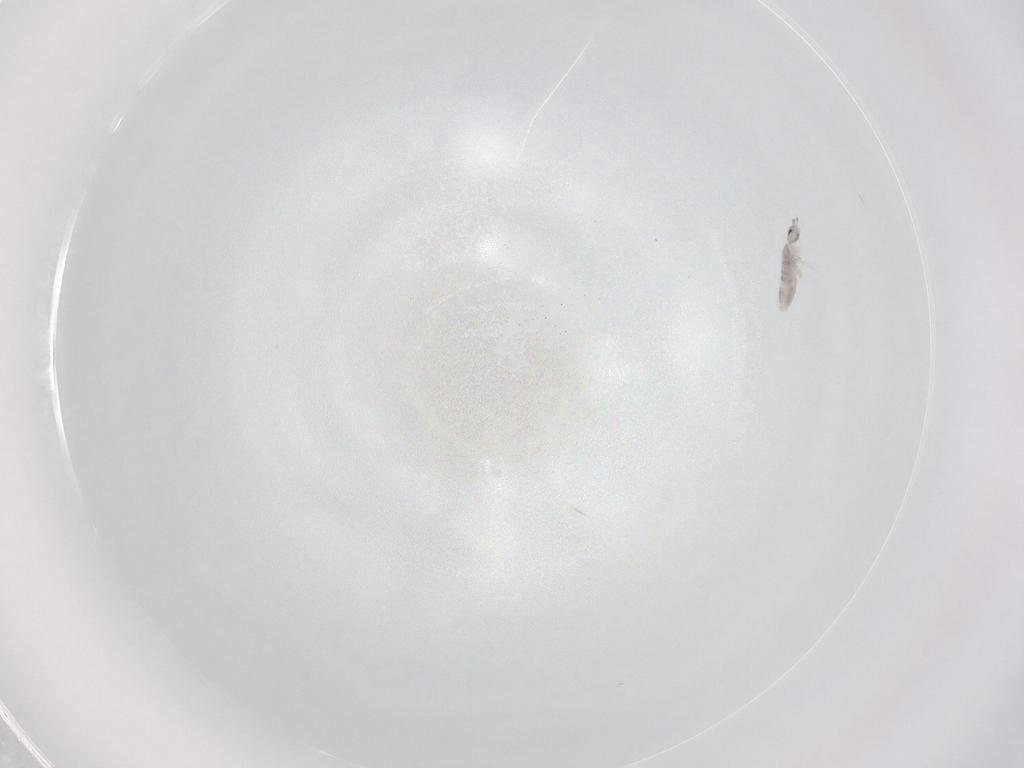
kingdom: Animalia
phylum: Arthropoda
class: Collembola
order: Entomobryomorpha
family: Entomobryidae
